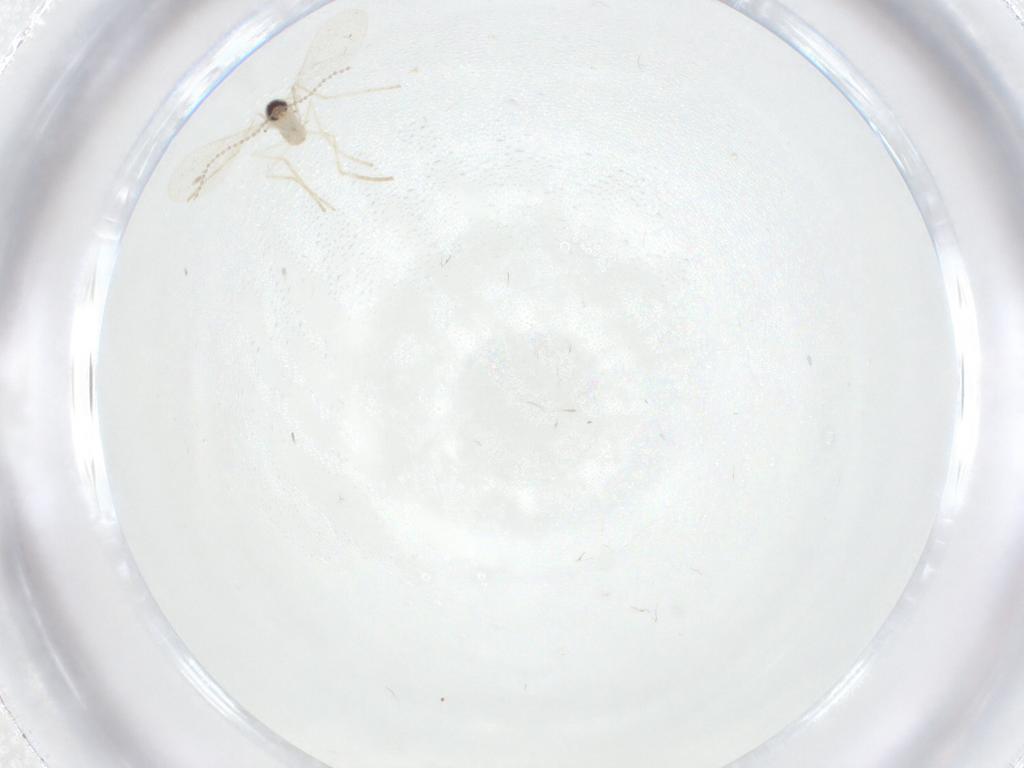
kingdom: Animalia
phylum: Arthropoda
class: Insecta
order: Diptera
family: Cecidomyiidae
